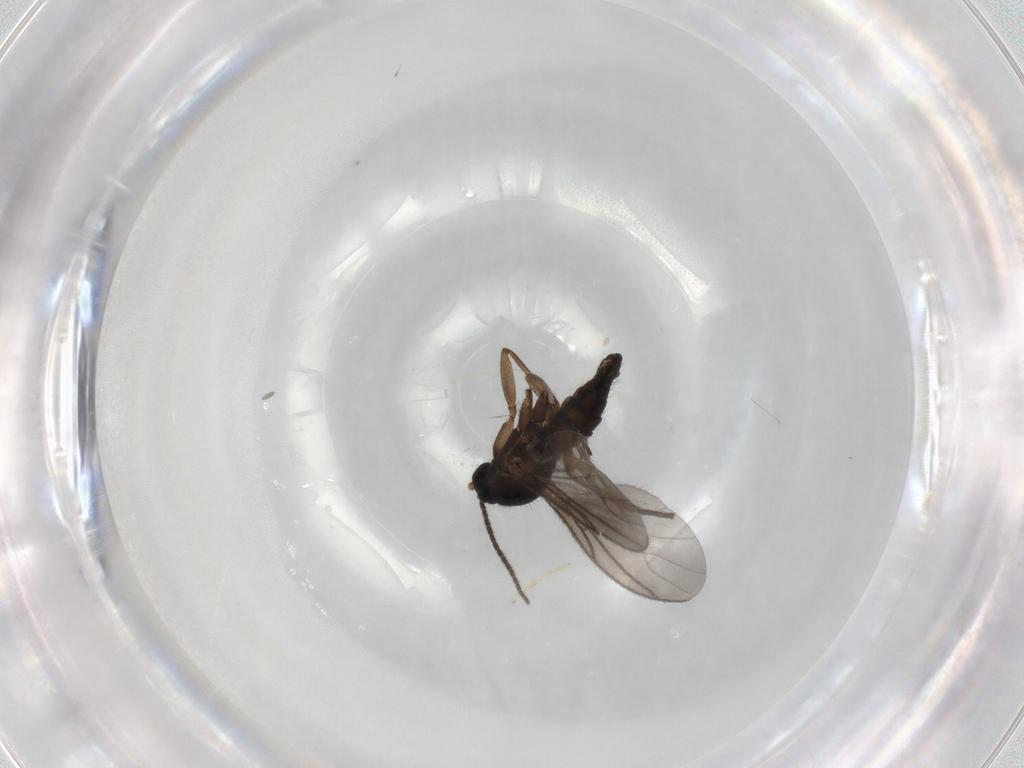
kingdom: Animalia
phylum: Arthropoda
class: Insecta
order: Diptera
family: Sciaridae
